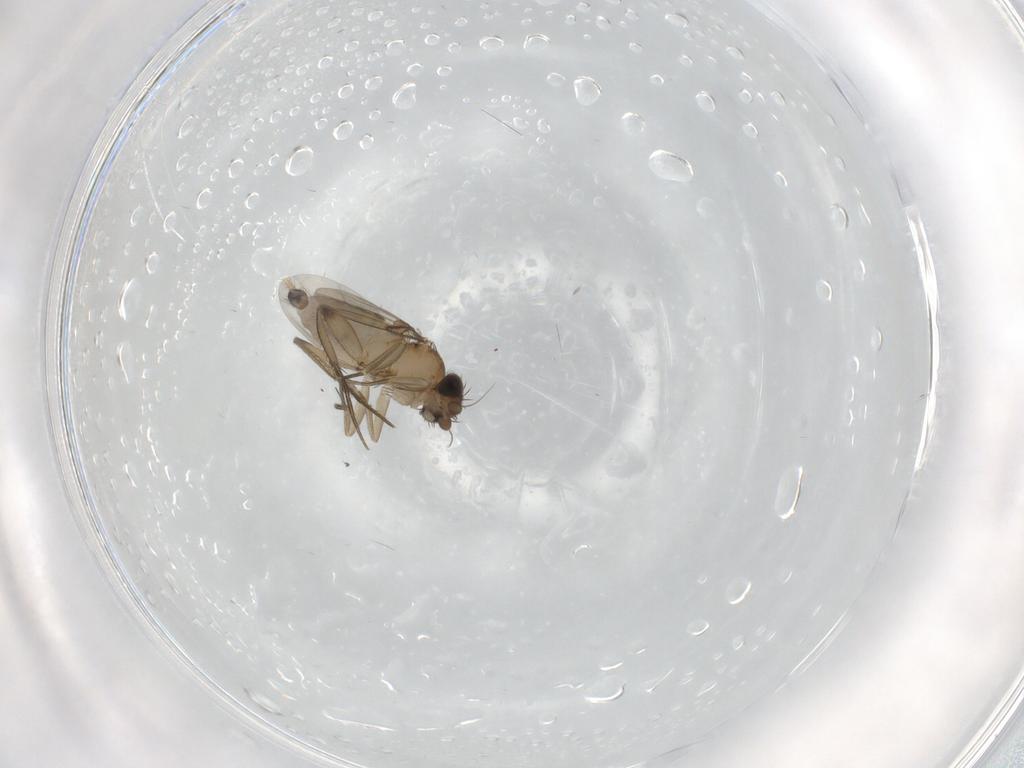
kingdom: Animalia
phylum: Arthropoda
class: Insecta
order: Diptera
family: Phoridae
